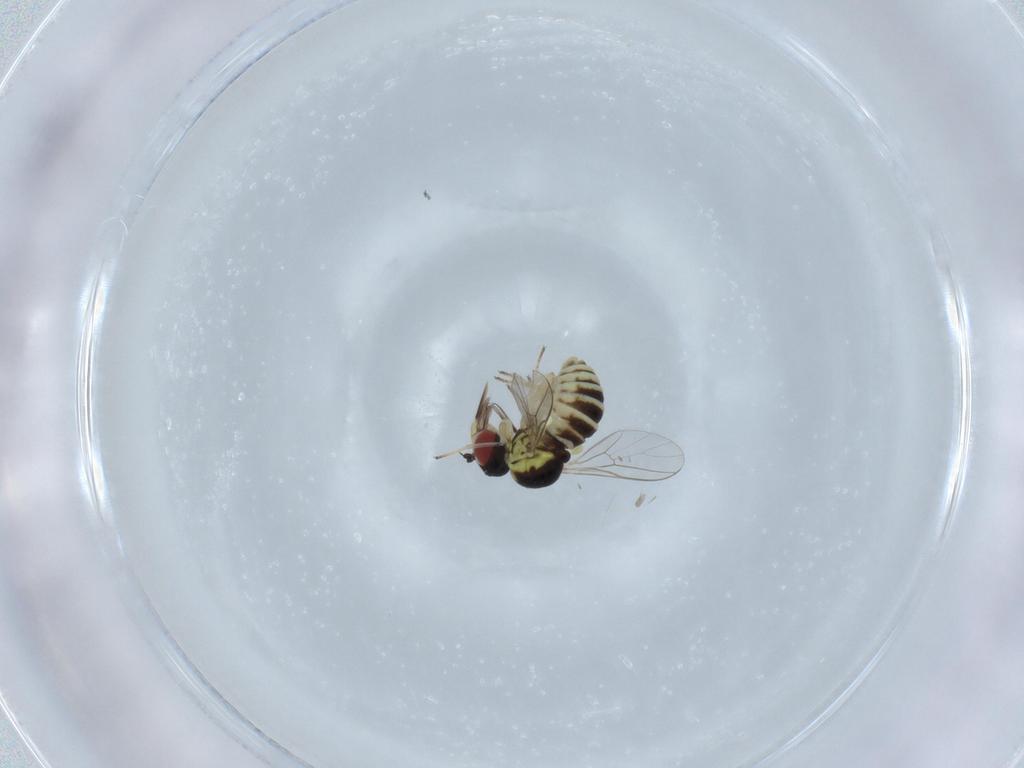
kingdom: Animalia
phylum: Arthropoda
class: Insecta
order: Diptera
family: Bombyliidae
